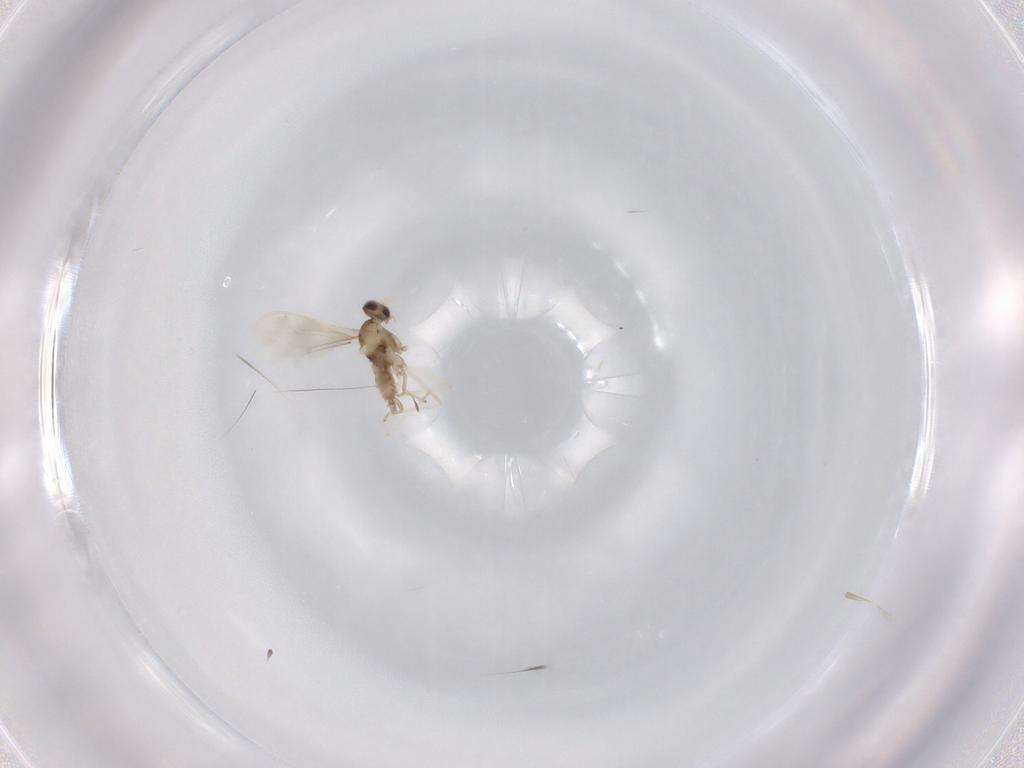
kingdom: Animalia
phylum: Arthropoda
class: Insecta
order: Diptera
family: Cecidomyiidae
